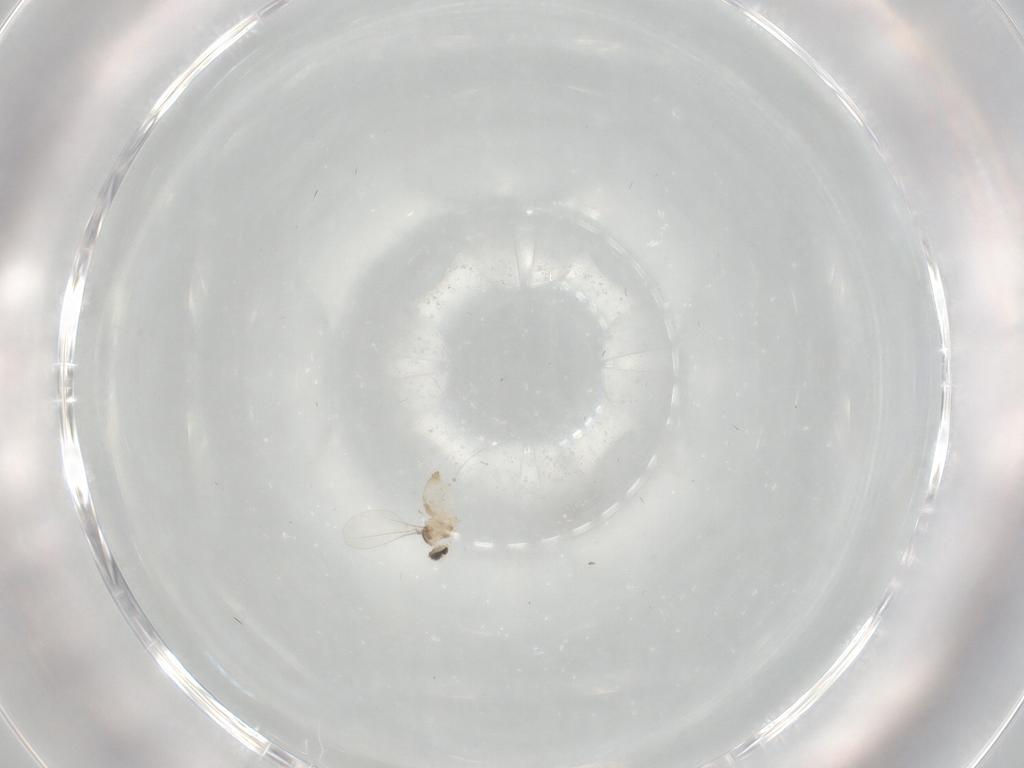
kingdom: Animalia
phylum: Arthropoda
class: Insecta
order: Diptera
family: Cecidomyiidae
